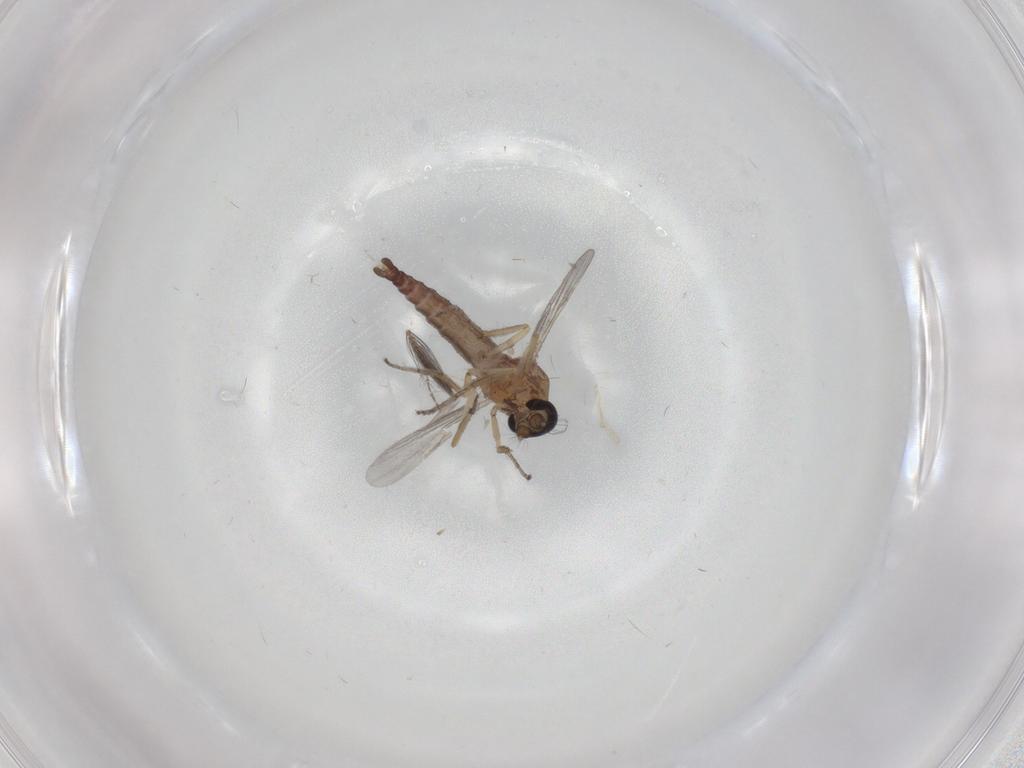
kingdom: Animalia
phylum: Arthropoda
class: Insecta
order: Diptera
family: Ceratopogonidae
